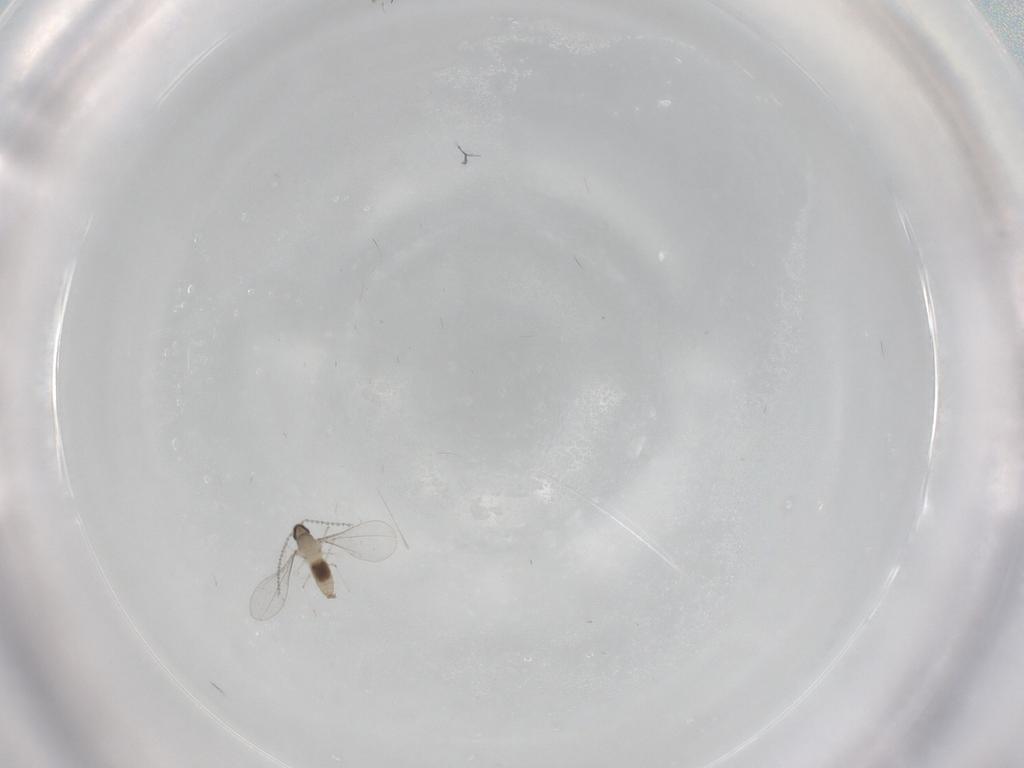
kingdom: Animalia
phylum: Arthropoda
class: Insecta
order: Diptera
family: Cecidomyiidae
